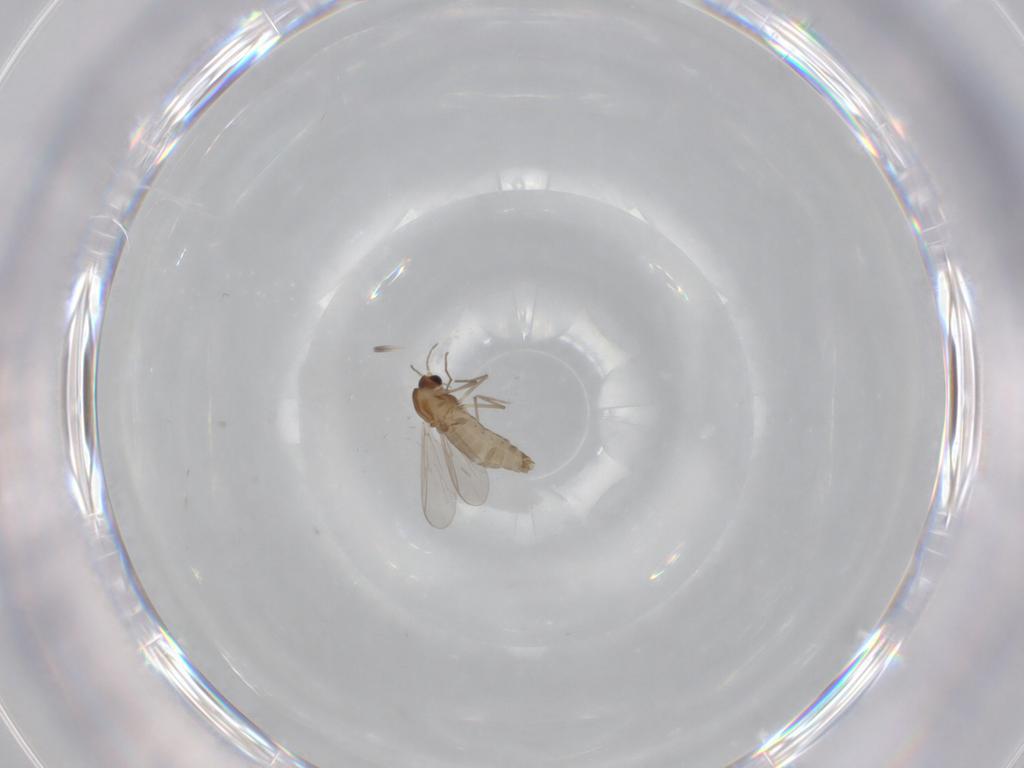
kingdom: Animalia
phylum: Arthropoda
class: Insecta
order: Diptera
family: Chironomidae
